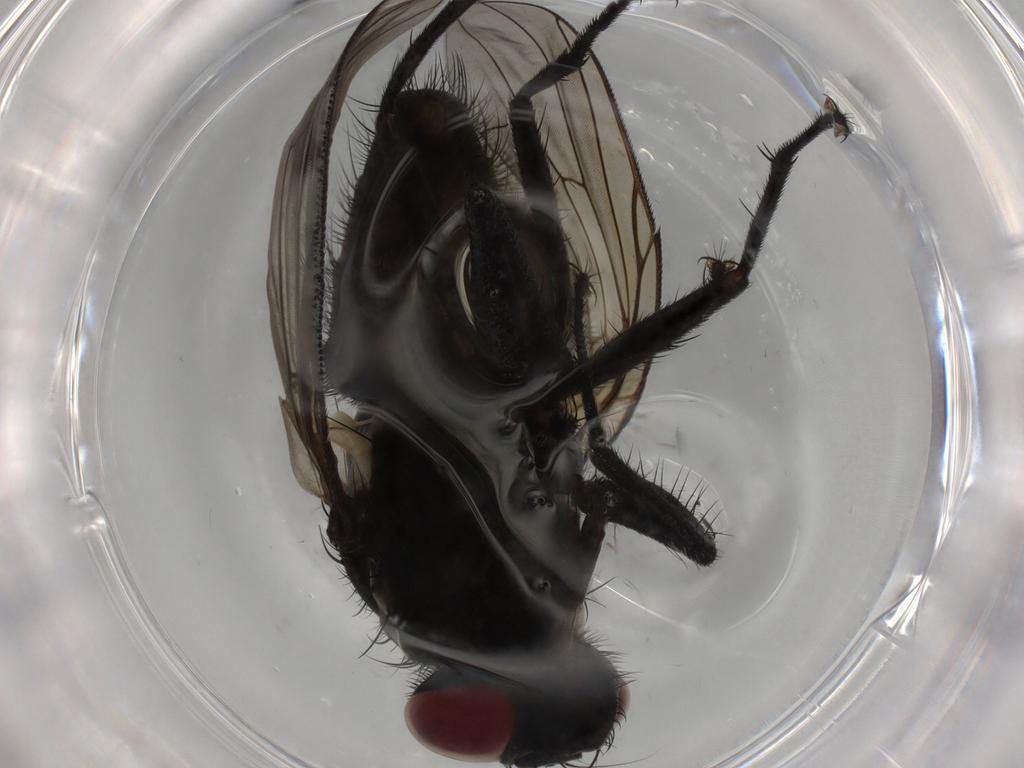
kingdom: Animalia
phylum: Arthropoda
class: Insecta
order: Diptera
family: Muscidae
